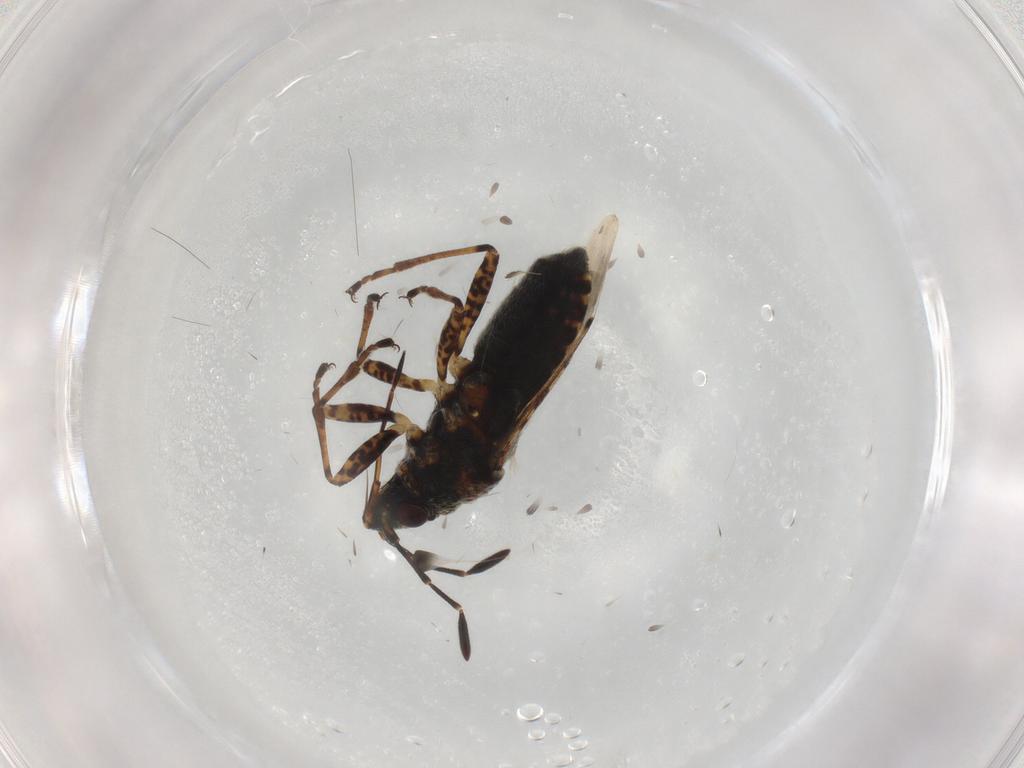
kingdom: Animalia
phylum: Arthropoda
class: Insecta
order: Hemiptera
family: Lygaeidae
